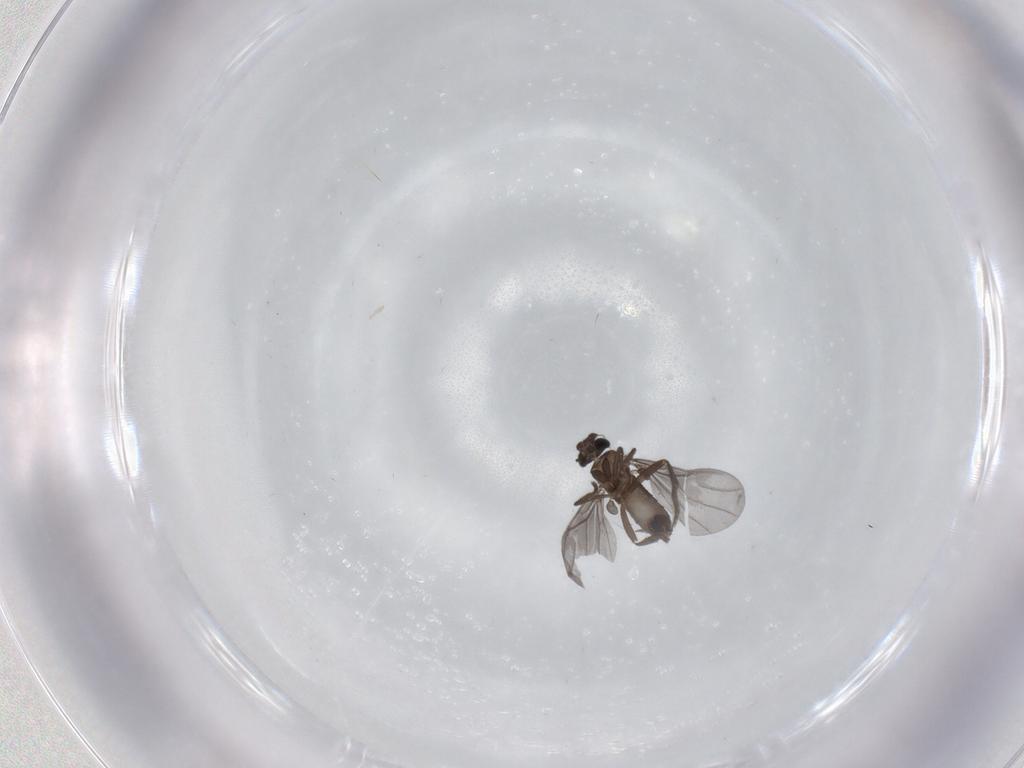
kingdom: Animalia
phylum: Arthropoda
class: Insecta
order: Diptera
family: Phoridae
